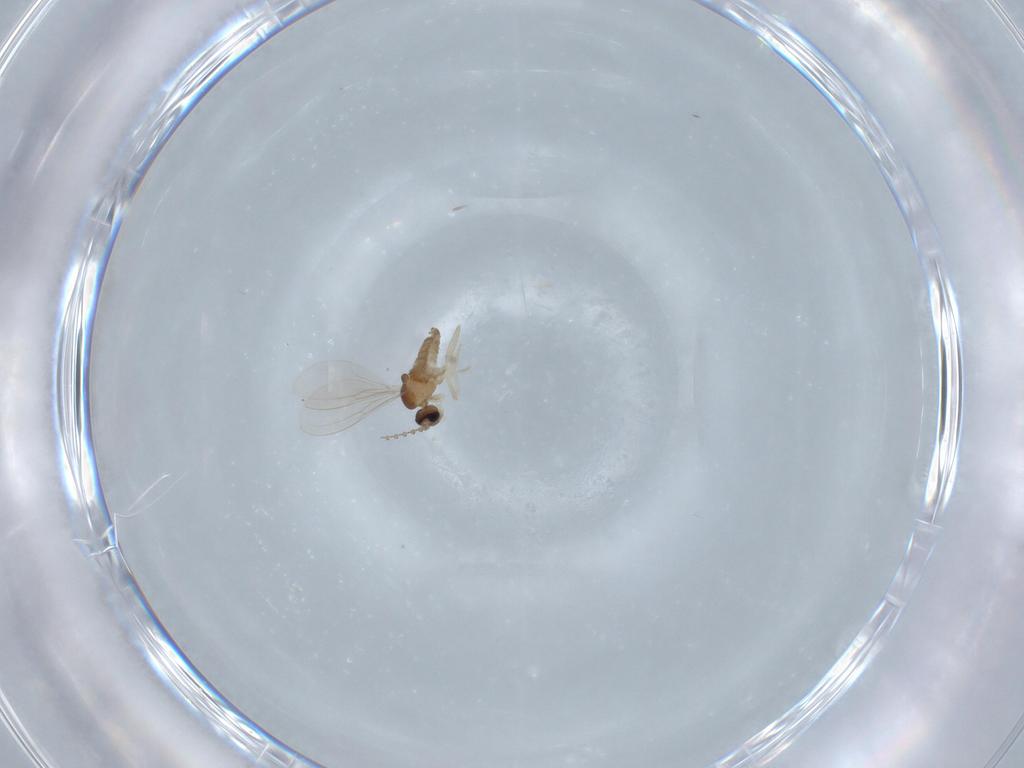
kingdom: Animalia
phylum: Arthropoda
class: Insecta
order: Diptera
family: Cecidomyiidae
